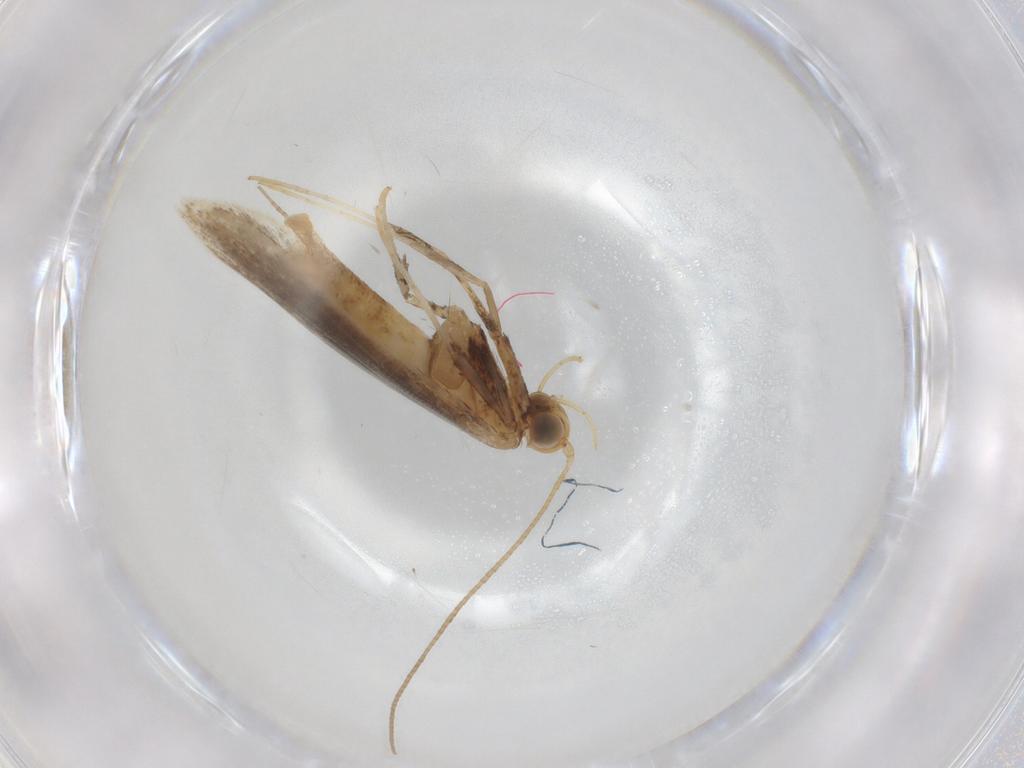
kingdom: Animalia
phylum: Arthropoda
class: Insecta
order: Lepidoptera
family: Gracillariidae
